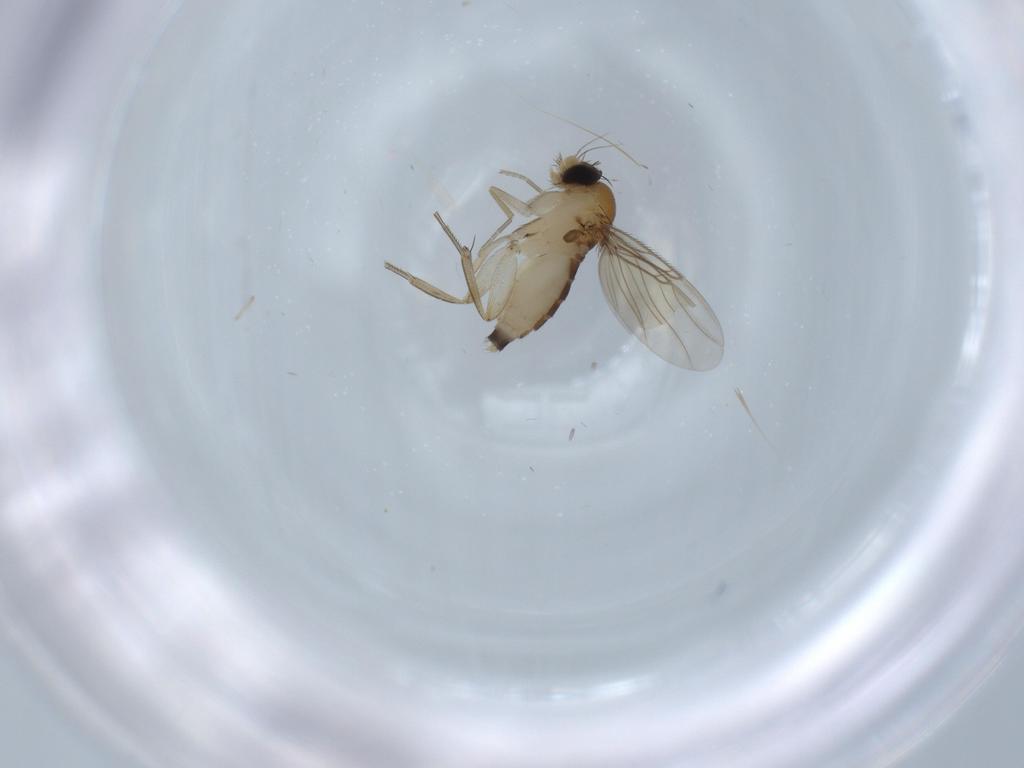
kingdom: Animalia
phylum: Arthropoda
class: Insecta
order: Diptera
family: Phoridae
